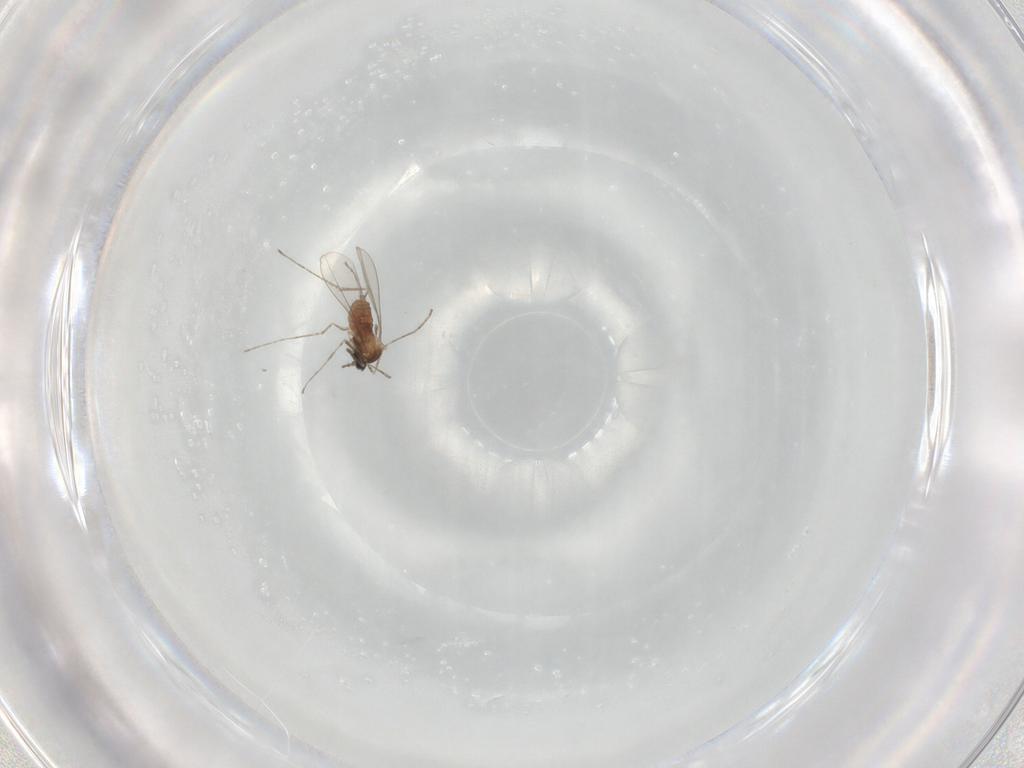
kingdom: Animalia
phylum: Arthropoda
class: Insecta
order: Diptera
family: Cecidomyiidae
